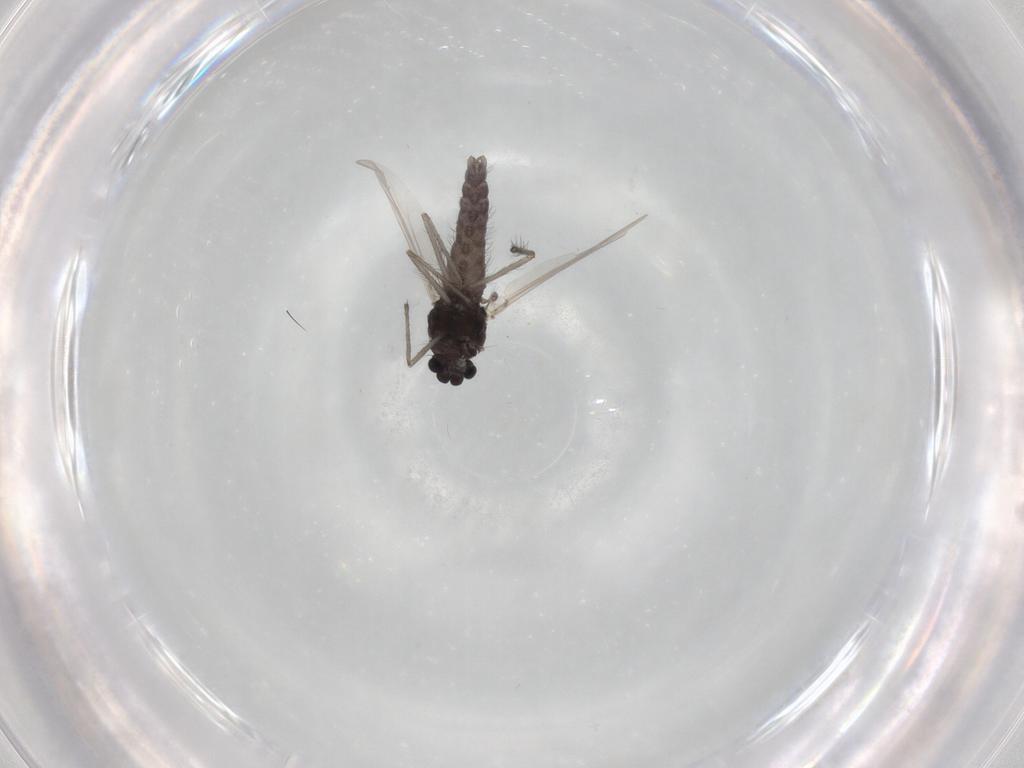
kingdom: Animalia
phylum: Arthropoda
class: Insecta
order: Diptera
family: Chironomidae
